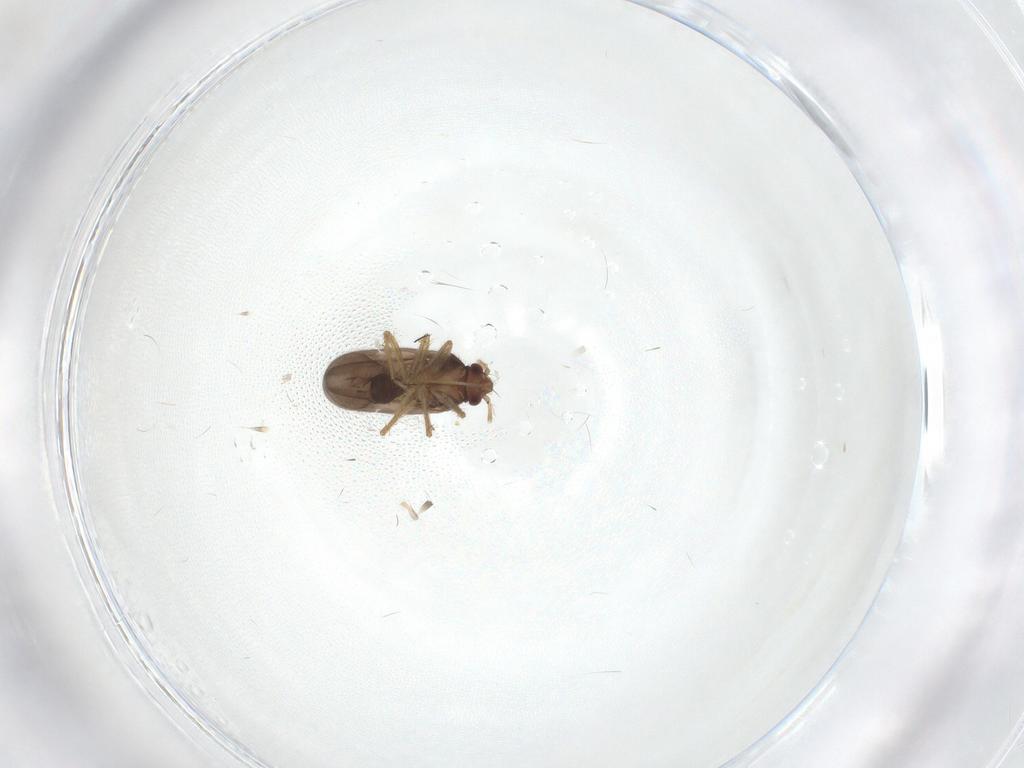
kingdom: Animalia
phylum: Arthropoda
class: Insecta
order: Hemiptera
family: Ceratocombidae
